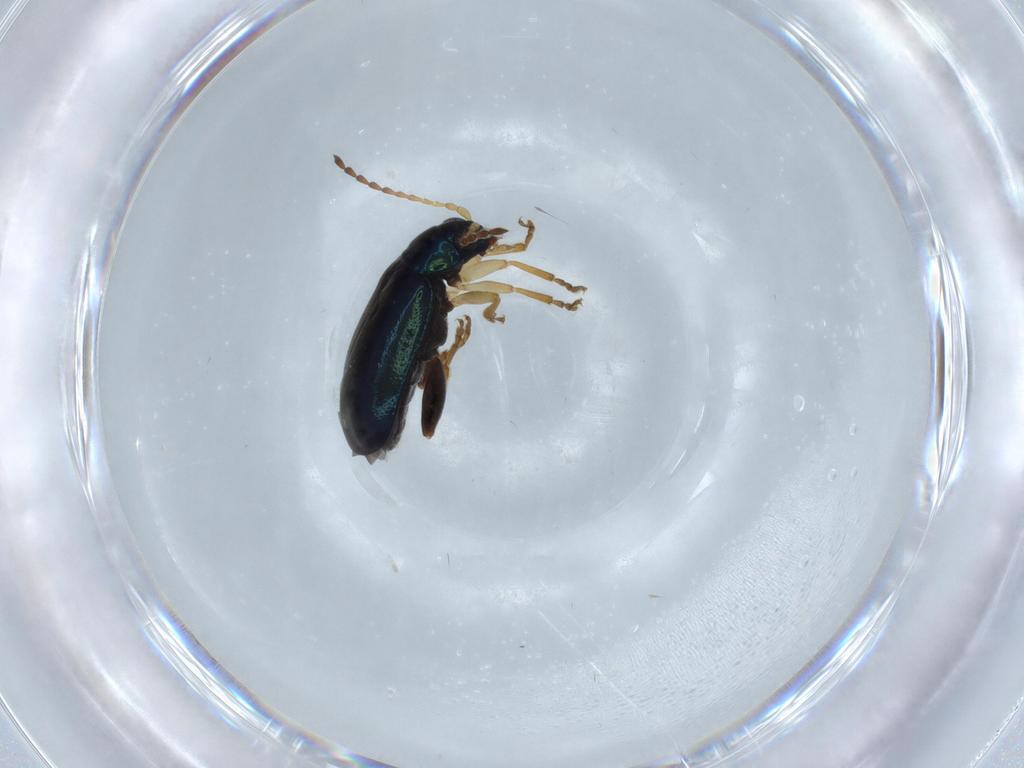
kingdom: Animalia
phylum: Arthropoda
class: Insecta
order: Coleoptera
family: Chrysomelidae
